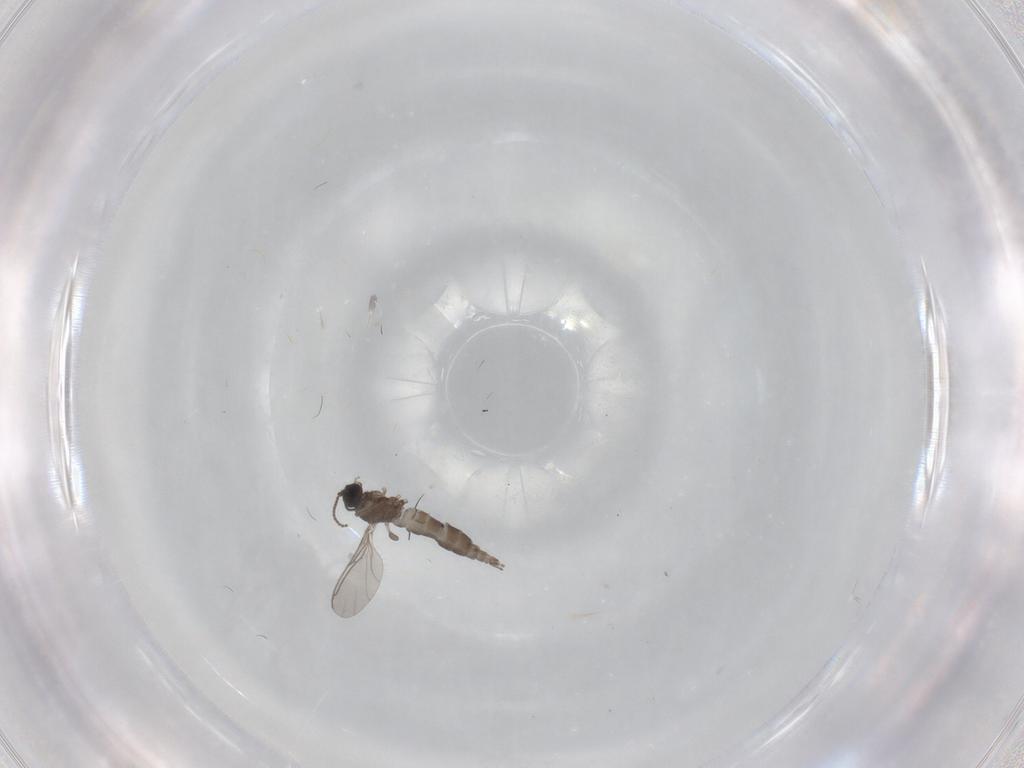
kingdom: Animalia
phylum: Arthropoda
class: Insecta
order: Diptera
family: Sciaridae
